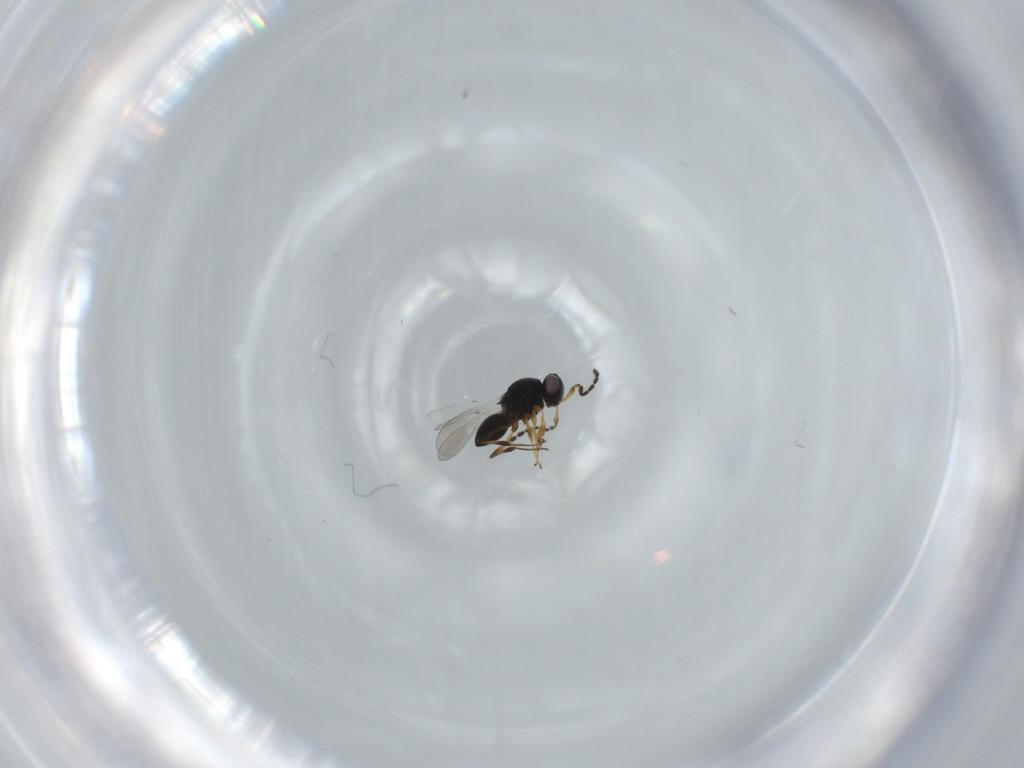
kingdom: Animalia
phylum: Arthropoda
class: Insecta
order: Hymenoptera
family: Platygastridae
